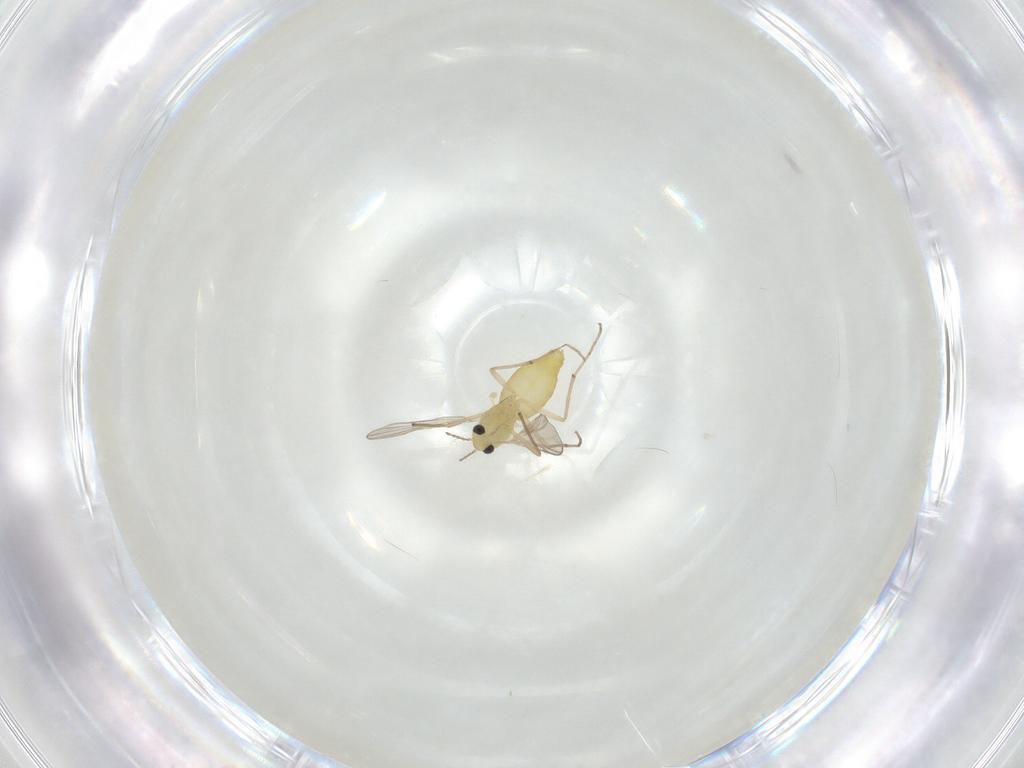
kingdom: Animalia
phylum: Arthropoda
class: Insecta
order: Diptera
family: Chironomidae
